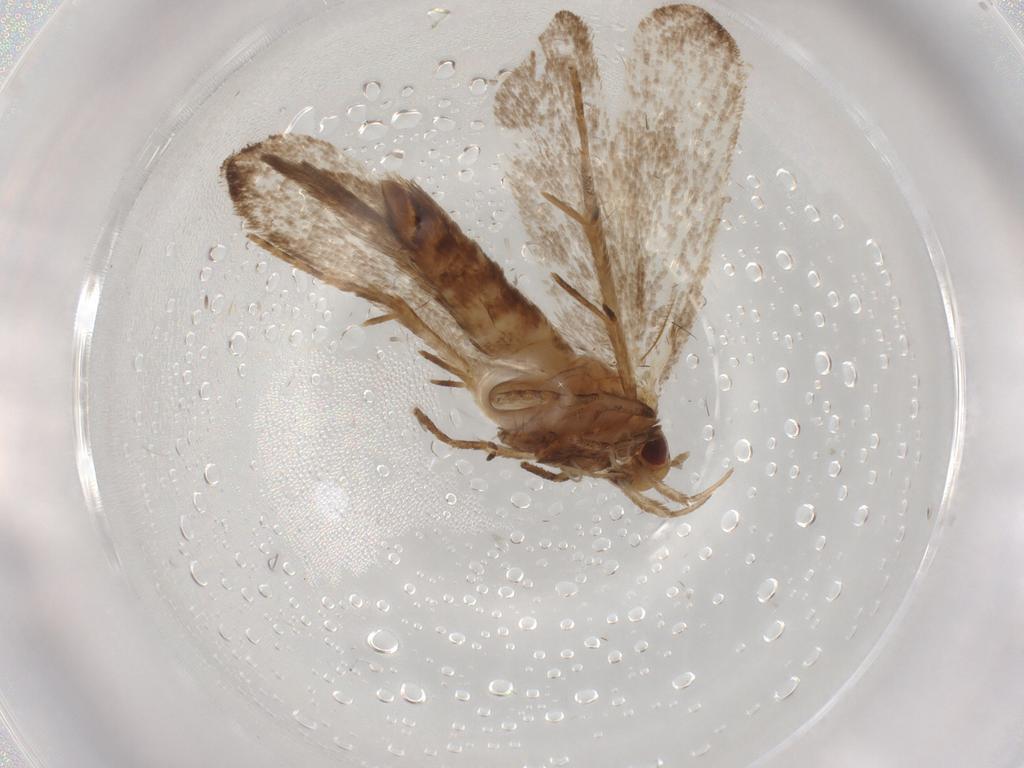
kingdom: Animalia
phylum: Arthropoda
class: Insecta
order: Lepidoptera
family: Gelechiidae
